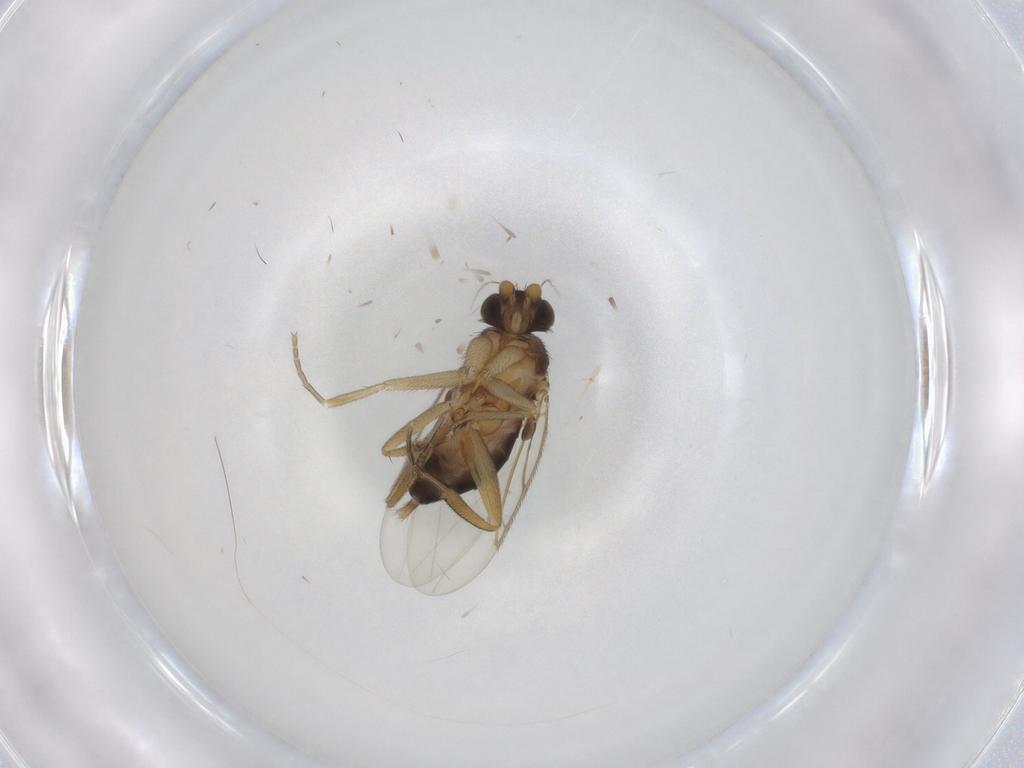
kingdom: Animalia
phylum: Arthropoda
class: Insecta
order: Diptera
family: Phoridae
